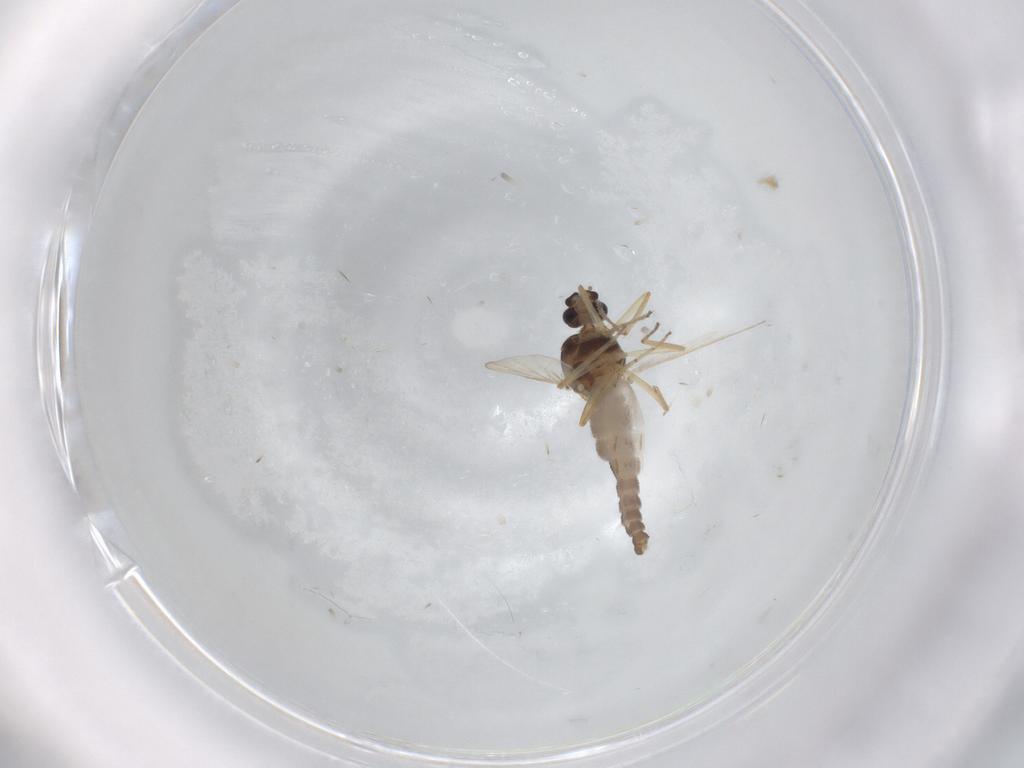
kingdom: Animalia
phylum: Arthropoda
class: Insecta
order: Diptera
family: Ceratopogonidae
